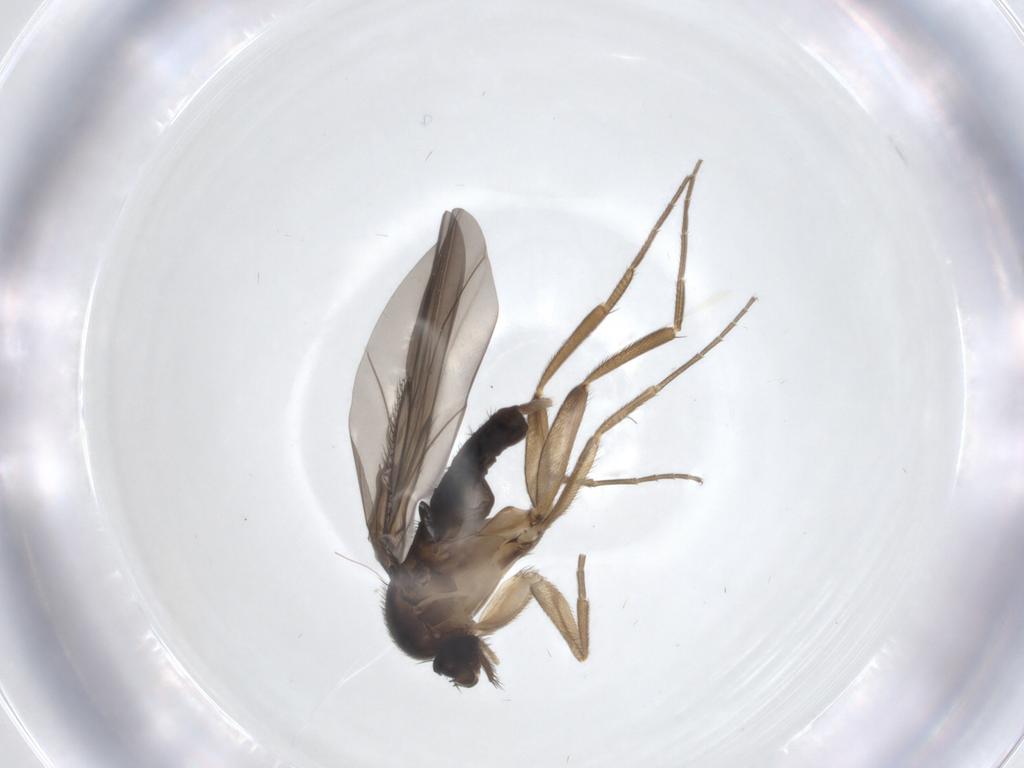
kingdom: Animalia
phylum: Arthropoda
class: Insecta
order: Diptera
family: Phoridae
